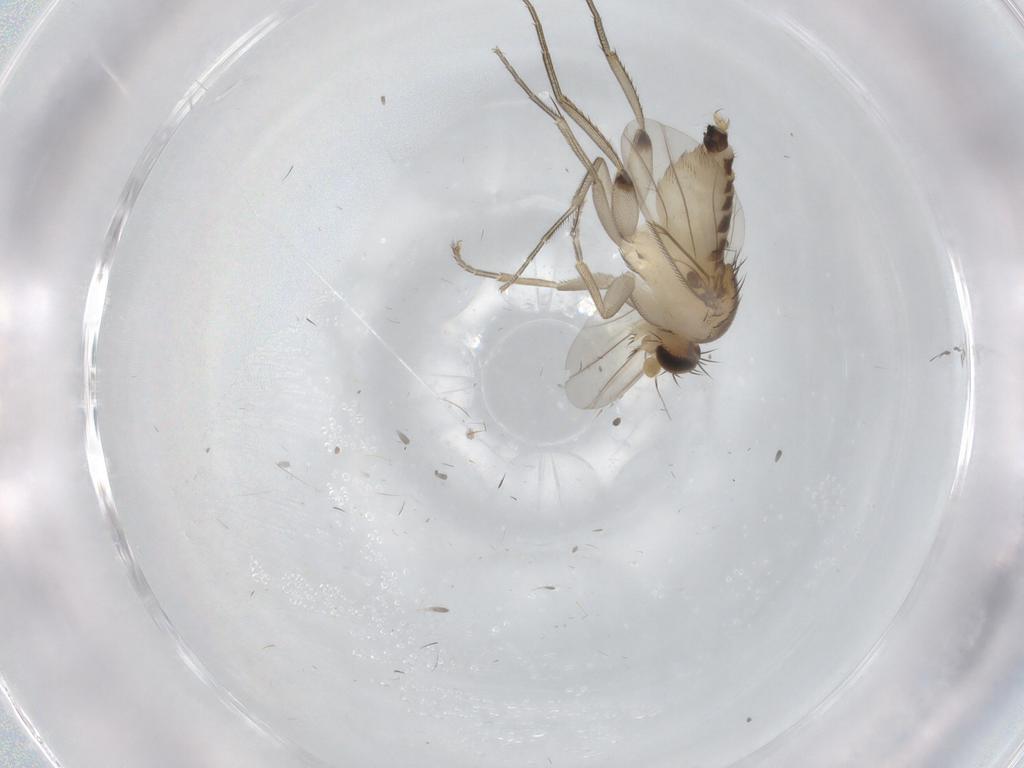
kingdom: Animalia
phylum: Arthropoda
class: Insecta
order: Diptera
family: Phoridae
